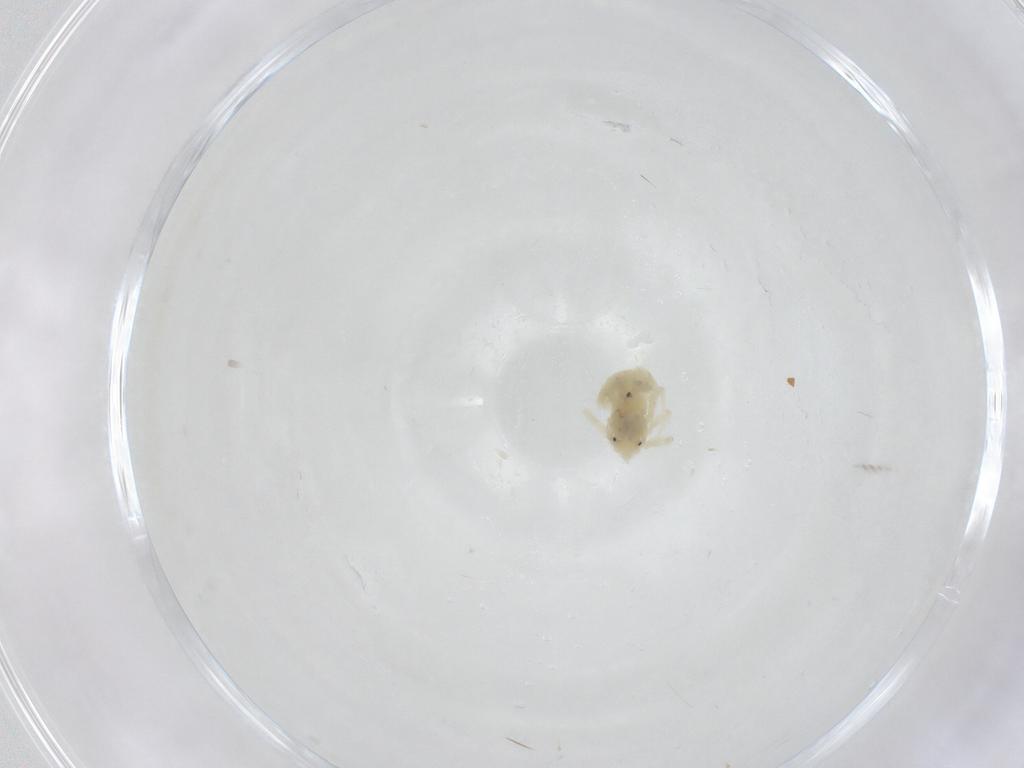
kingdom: Animalia
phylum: Arthropoda
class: Arachnida
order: Trombidiformes
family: Anystidae
